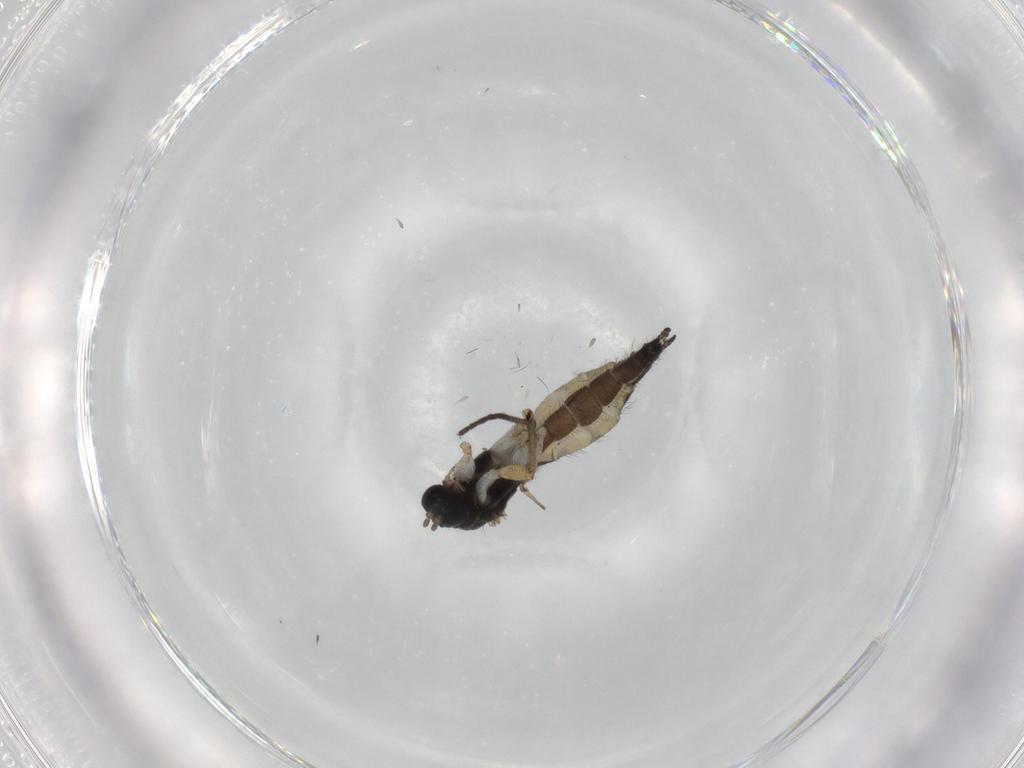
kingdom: Animalia
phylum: Arthropoda
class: Insecta
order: Diptera
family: Sciaridae
